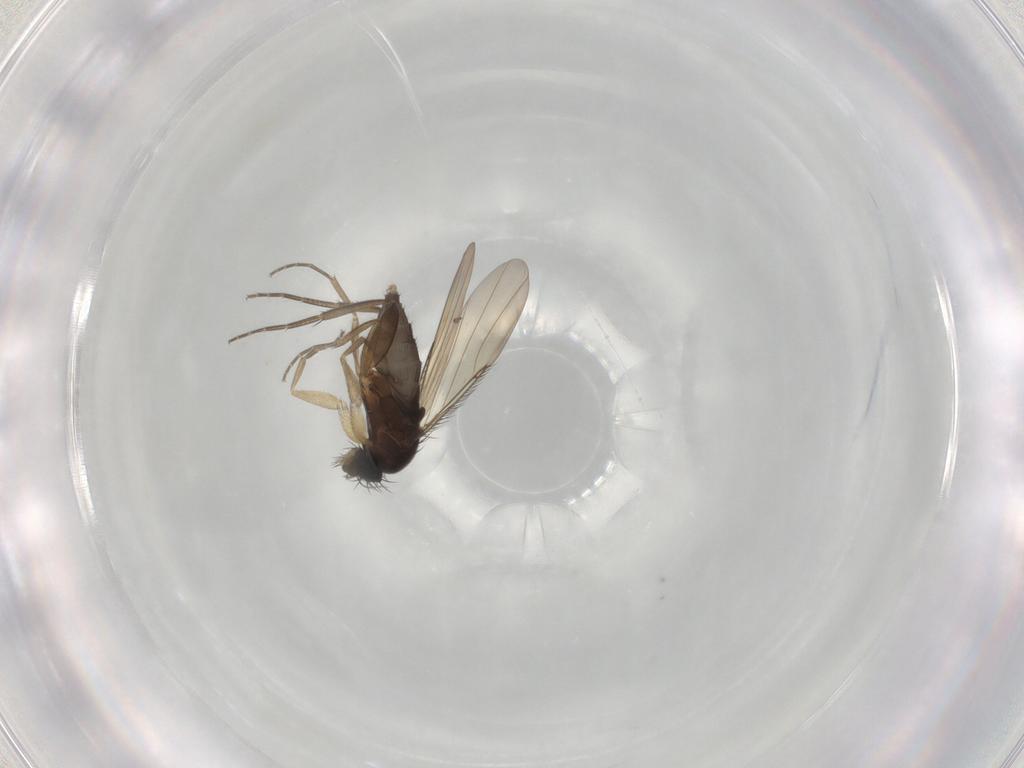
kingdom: Animalia
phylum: Arthropoda
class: Insecta
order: Diptera
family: Phoridae
